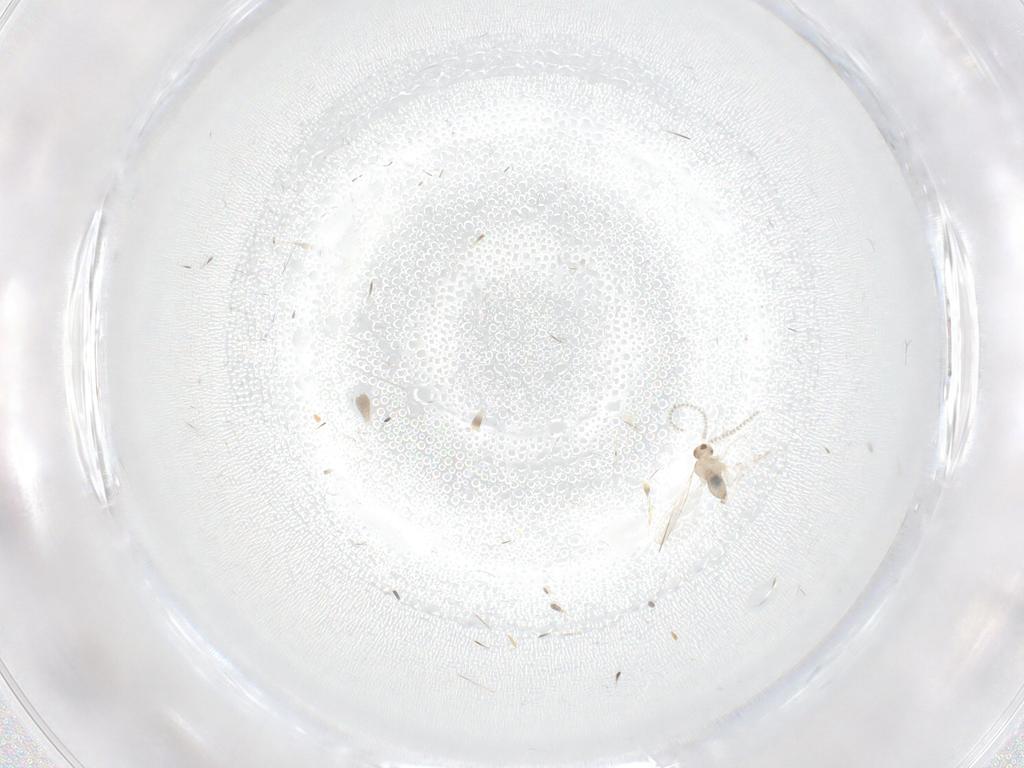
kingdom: Animalia
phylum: Arthropoda
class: Insecta
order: Diptera
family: Cecidomyiidae
